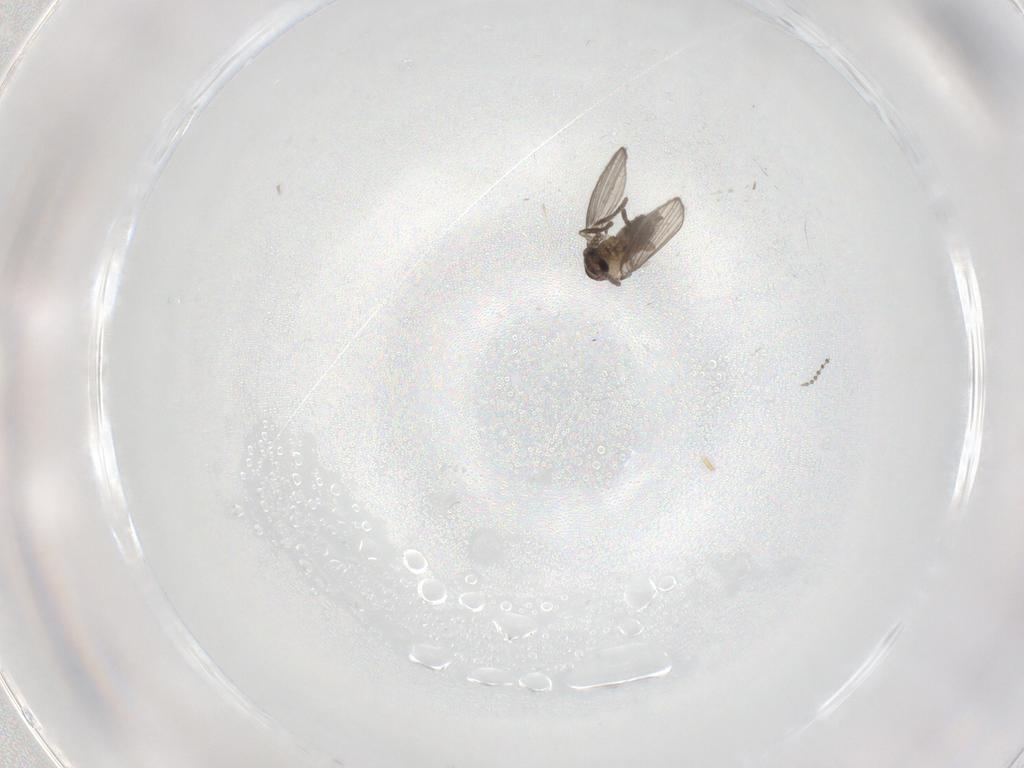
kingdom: Animalia
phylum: Arthropoda
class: Insecta
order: Diptera
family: Psychodidae
